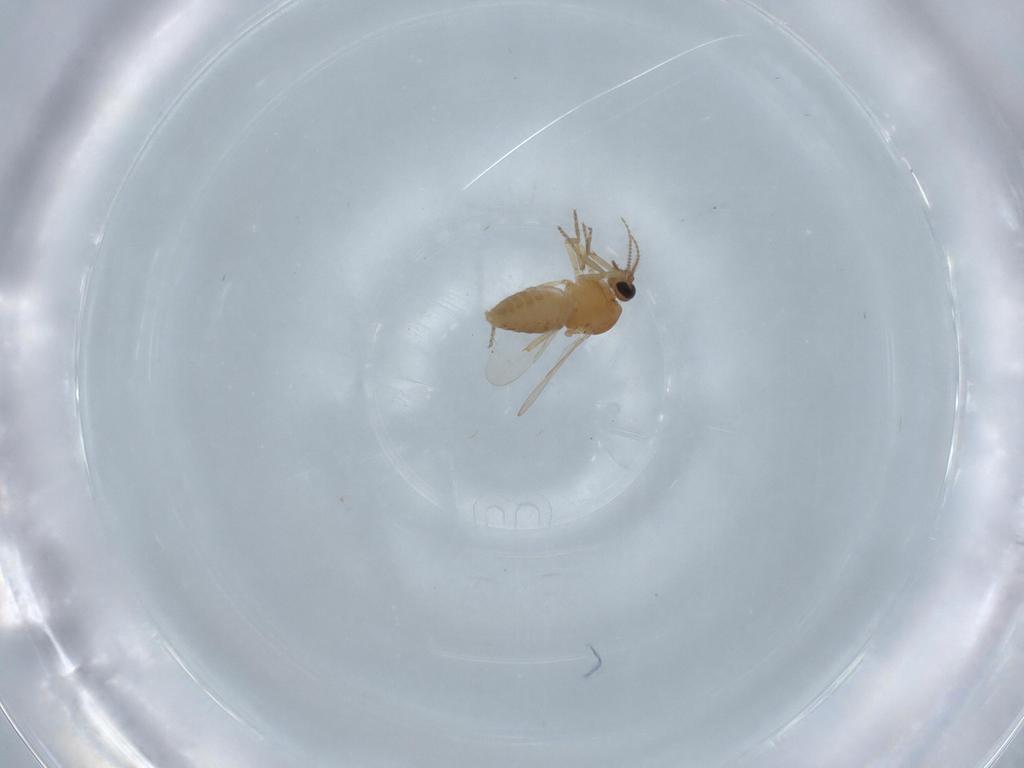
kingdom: Animalia
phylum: Arthropoda
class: Insecta
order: Diptera
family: Ceratopogonidae
